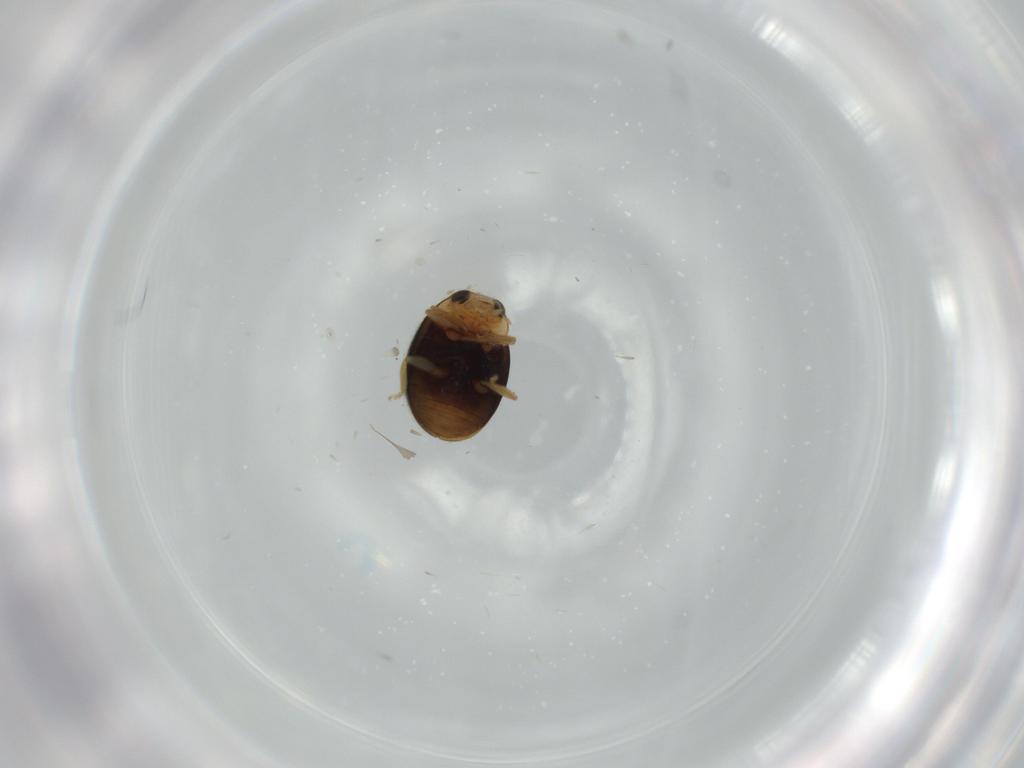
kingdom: Animalia
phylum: Arthropoda
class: Insecta
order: Coleoptera
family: Coccinellidae
